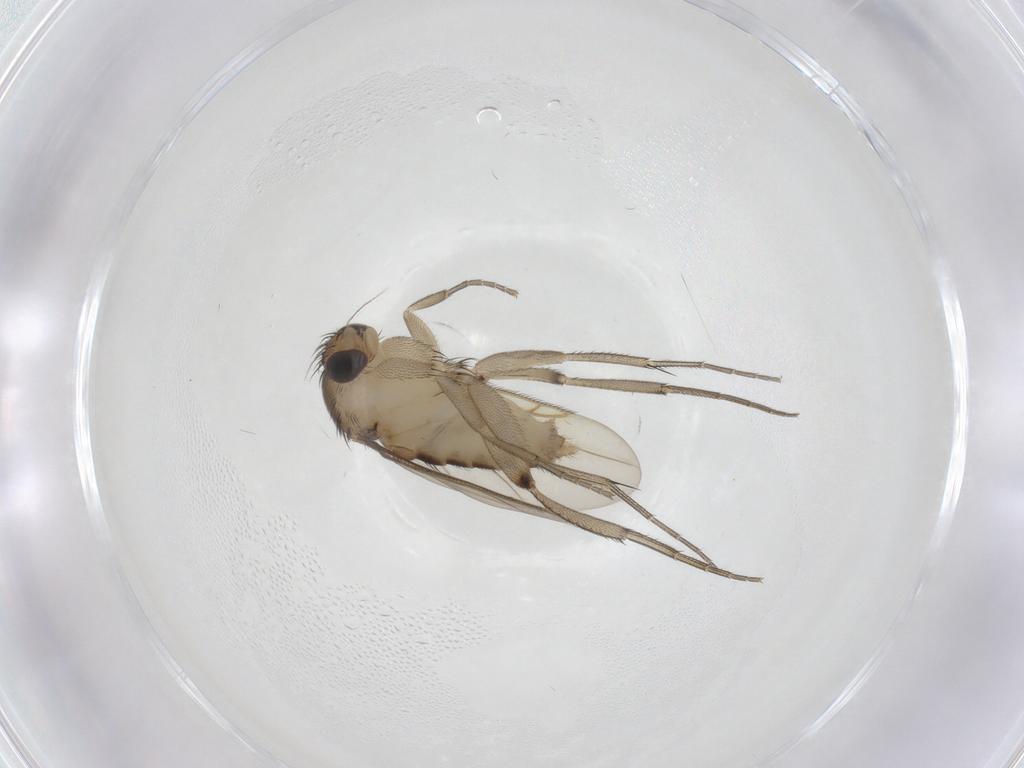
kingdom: Animalia
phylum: Arthropoda
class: Insecta
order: Diptera
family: Phoridae
